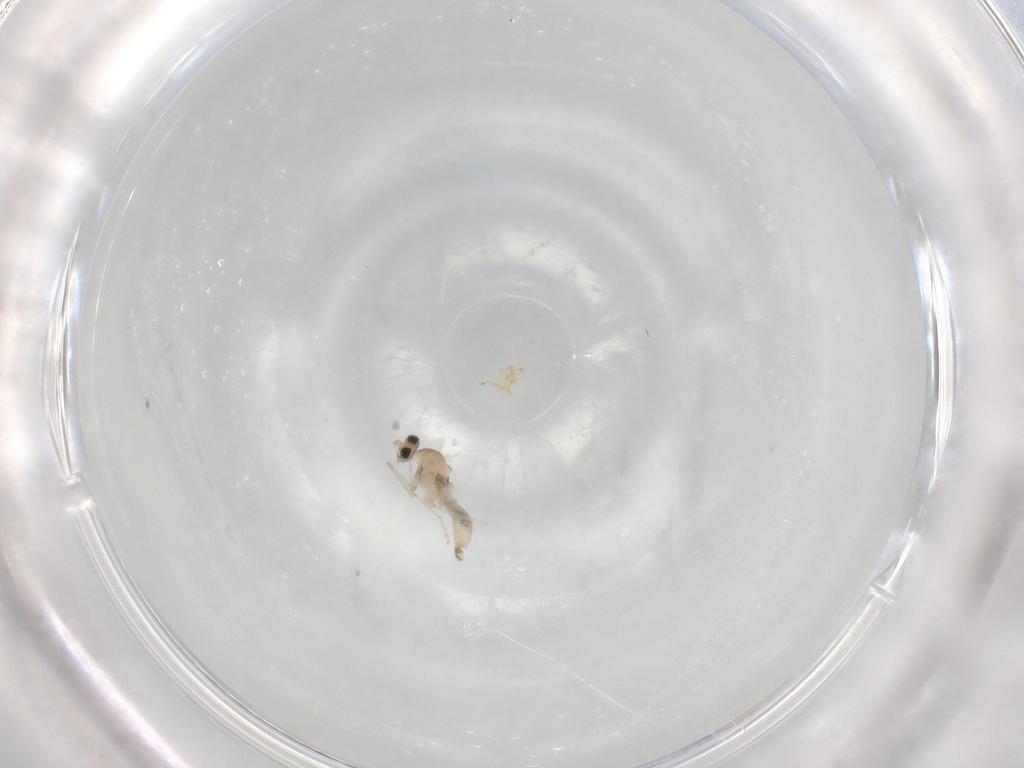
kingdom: Animalia
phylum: Arthropoda
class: Insecta
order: Diptera
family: Cecidomyiidae
